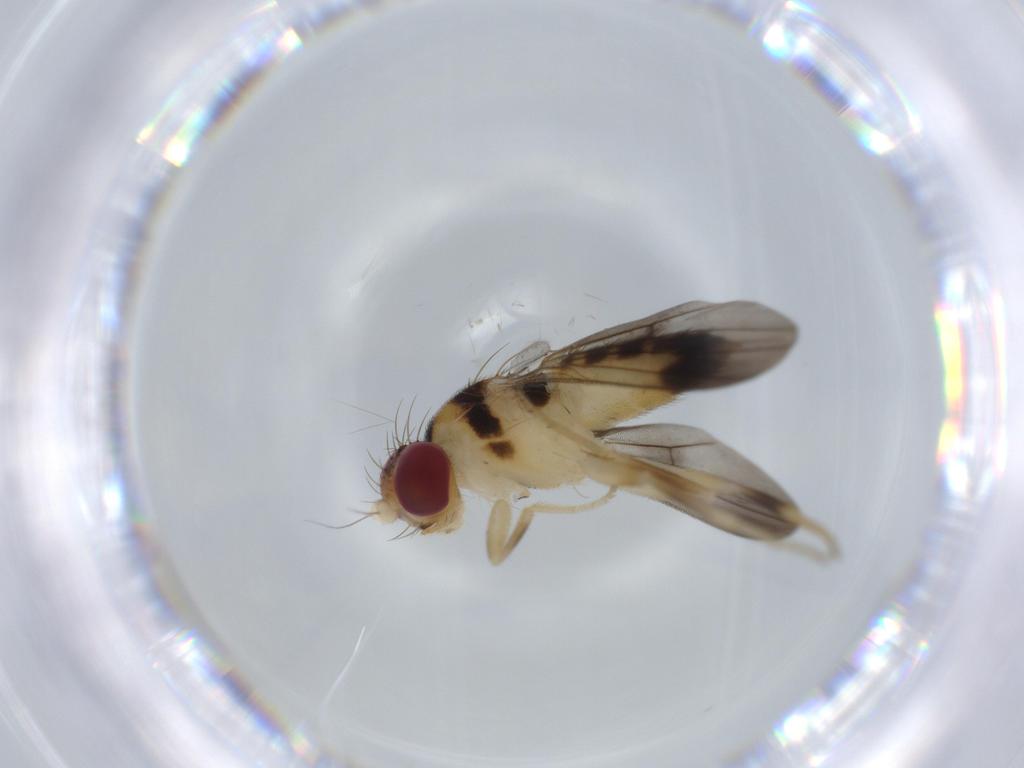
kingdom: Animalia
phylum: Arthropoda
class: Insecta
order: Diptera
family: Clusiidae
